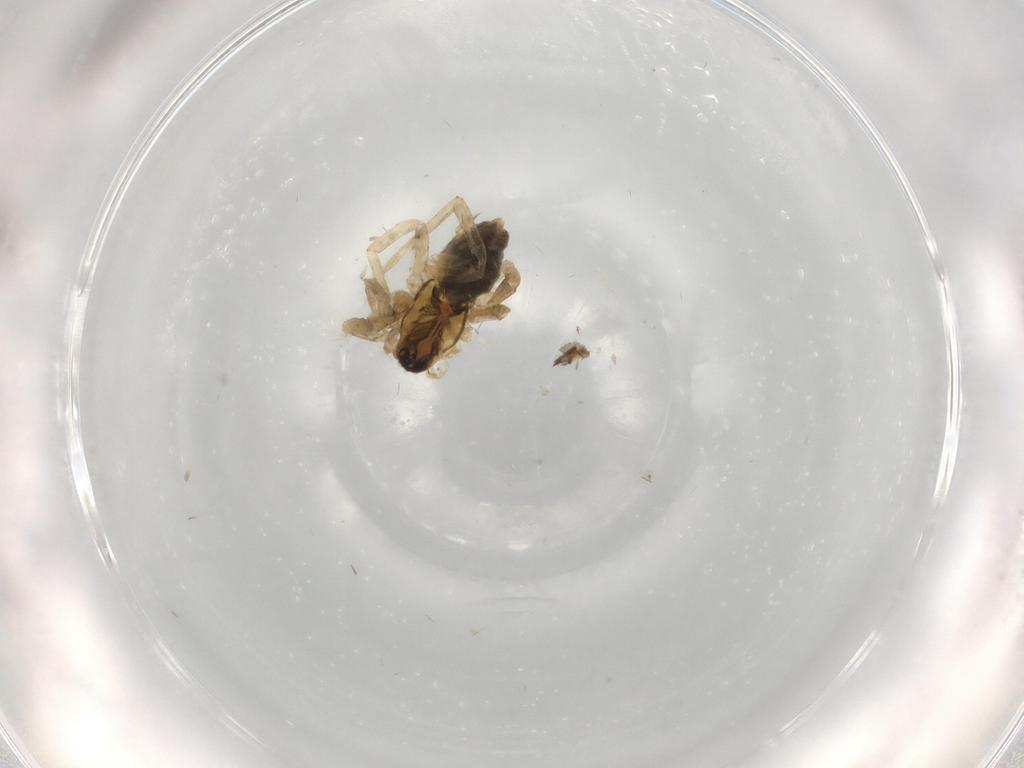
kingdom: Animalia
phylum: Arthropoda
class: Arachnida
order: Araneae
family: Anyphaenidae
